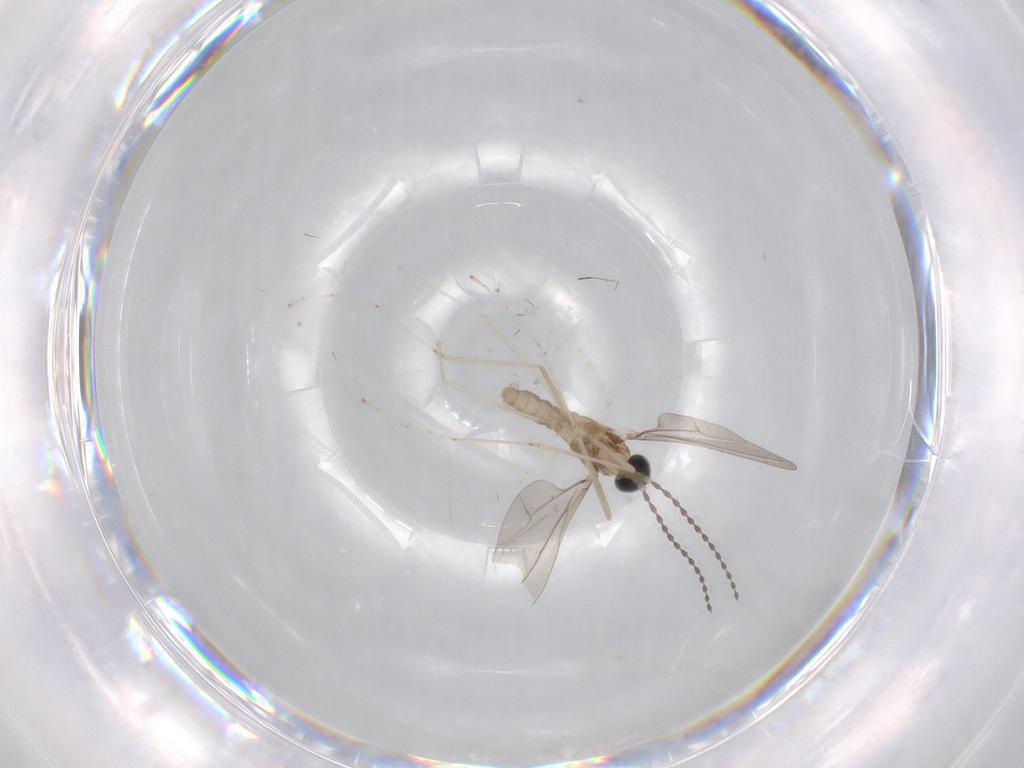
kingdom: Animalia
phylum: Arthropoda
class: Insecta
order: Diptera
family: Cecidomyiidae
